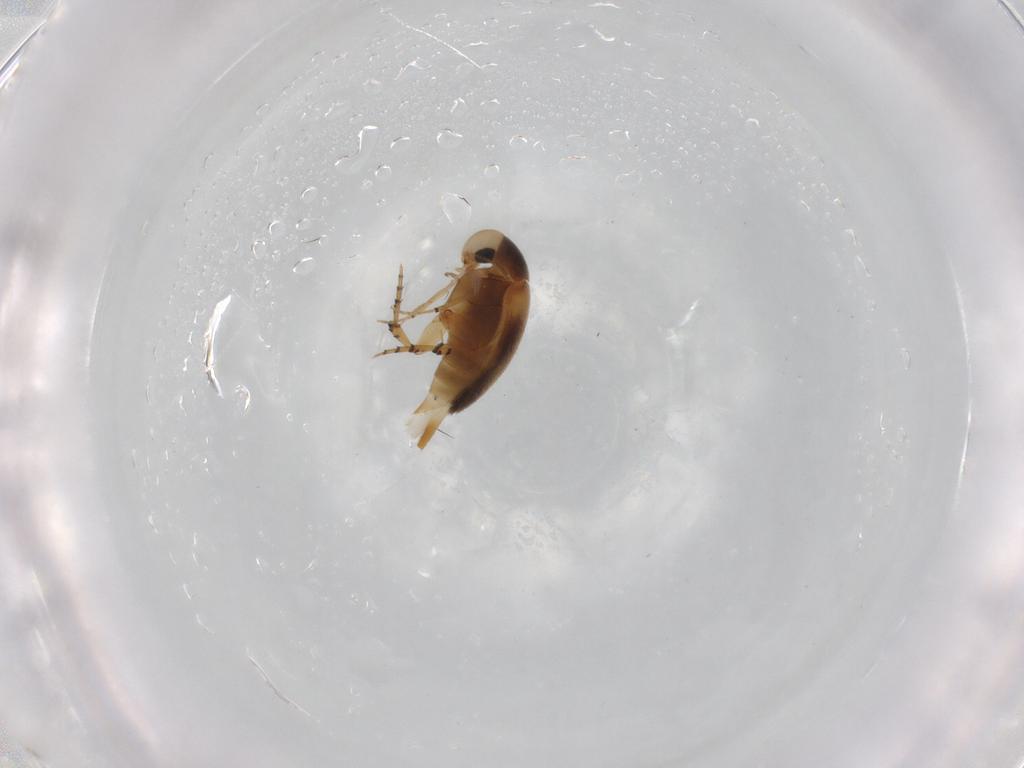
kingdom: Animalia
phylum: Arthropoda
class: Insecta
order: Coleoptera
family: Mordellidae
